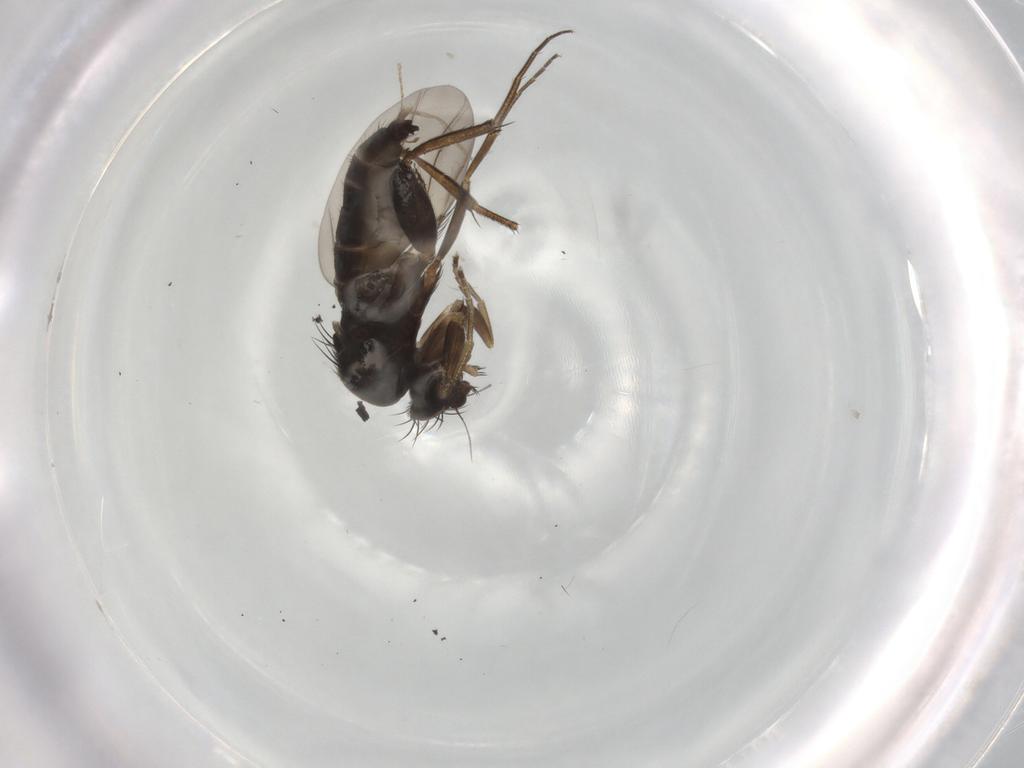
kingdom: Animalia
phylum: Arthropoda
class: Insecta
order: Diptera
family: Phoridae
